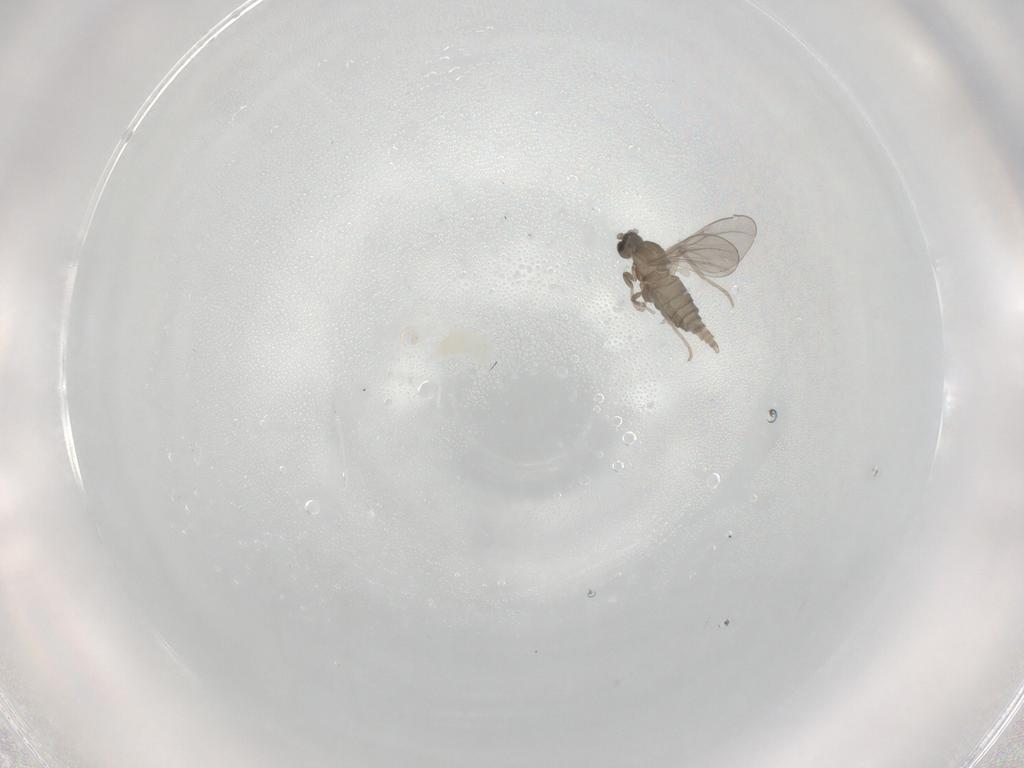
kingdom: Animalia
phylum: Arthropoda
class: Insecta
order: Diptera
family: Cecidomyiidae
